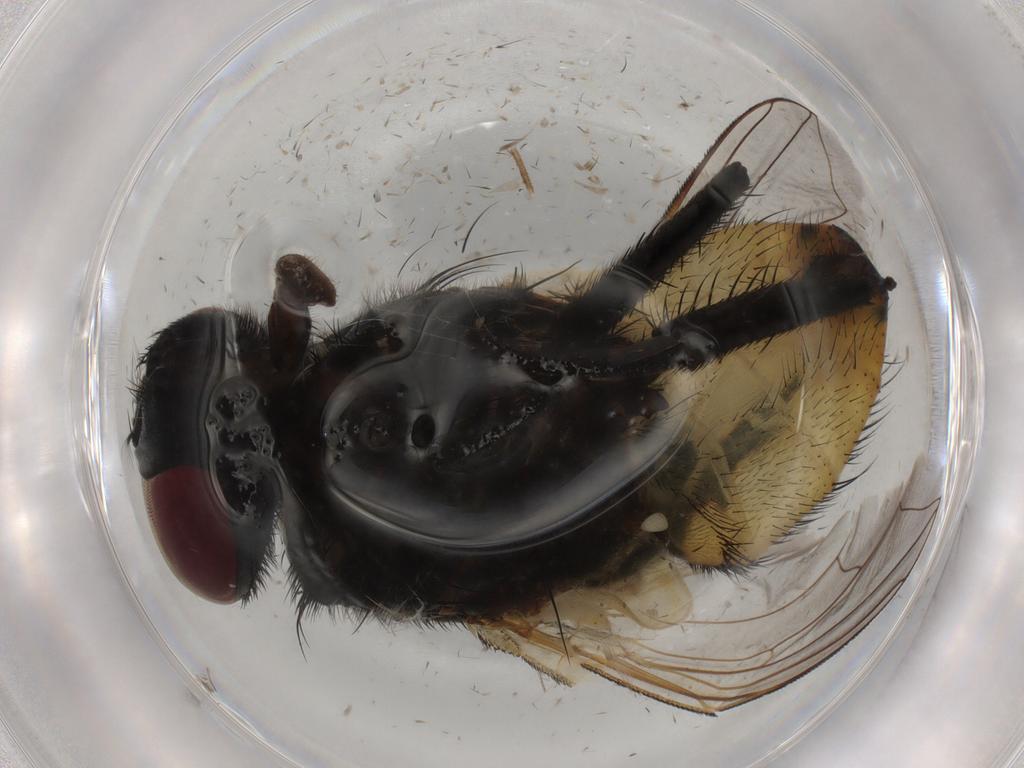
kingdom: Animalia
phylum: Arthropoda
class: Insecta
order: Diptera
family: Muscidae
